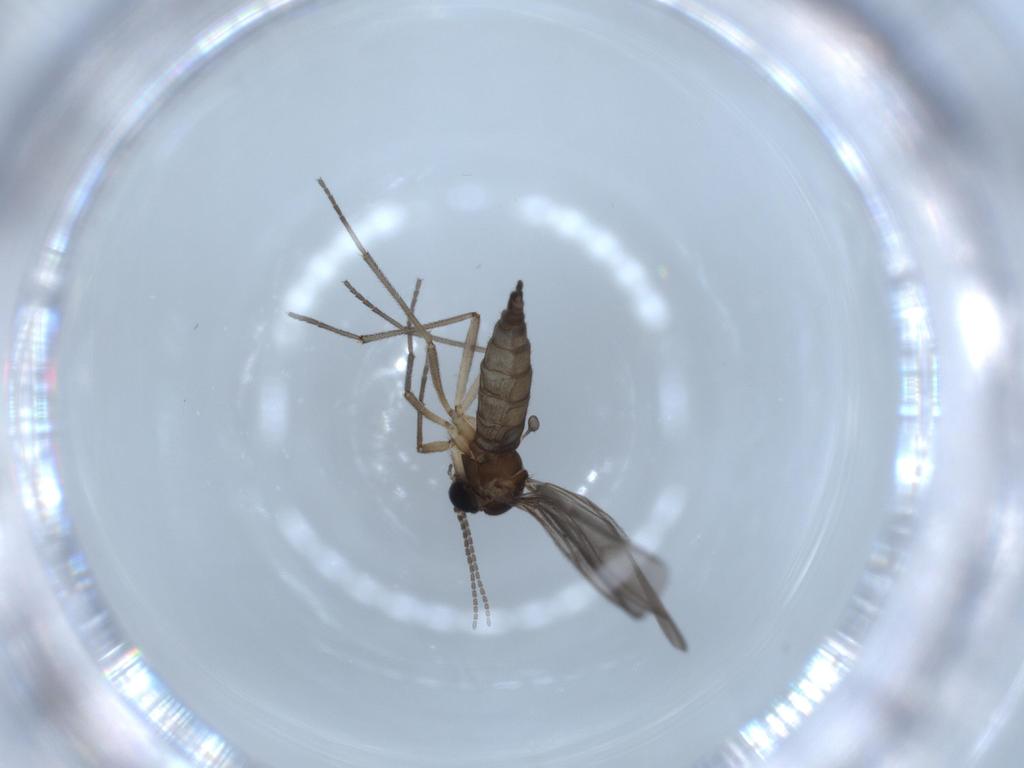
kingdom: Animalia
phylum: Arthropoda
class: Insecta
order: Diptera
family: Sciaridae
